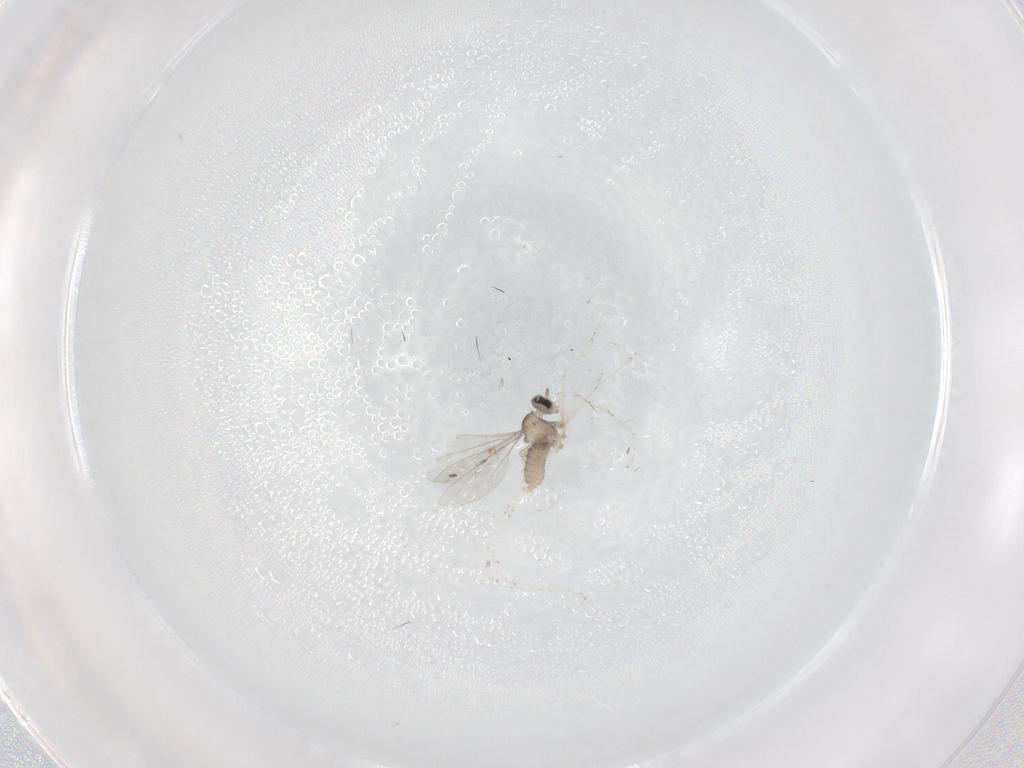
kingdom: Animalia
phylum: Arthropoda
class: Insecta
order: Diptera
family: Cecidomyiidae
